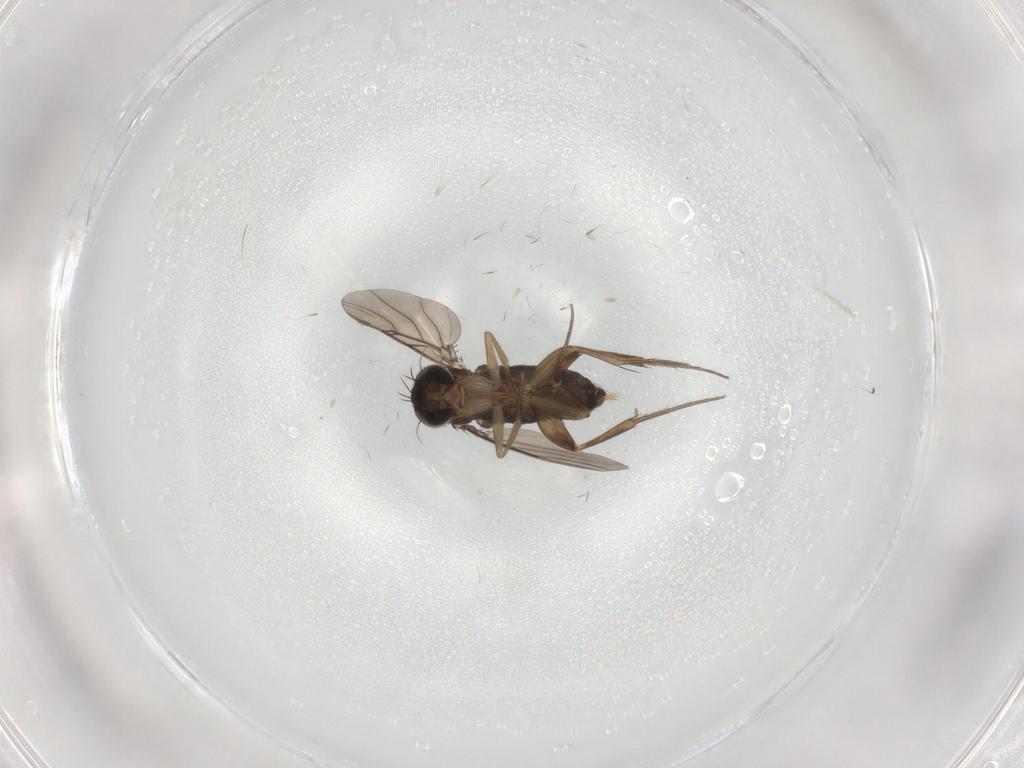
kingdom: Animalia
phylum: Arthropoda
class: Insecta
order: Diptera
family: Phoridae
